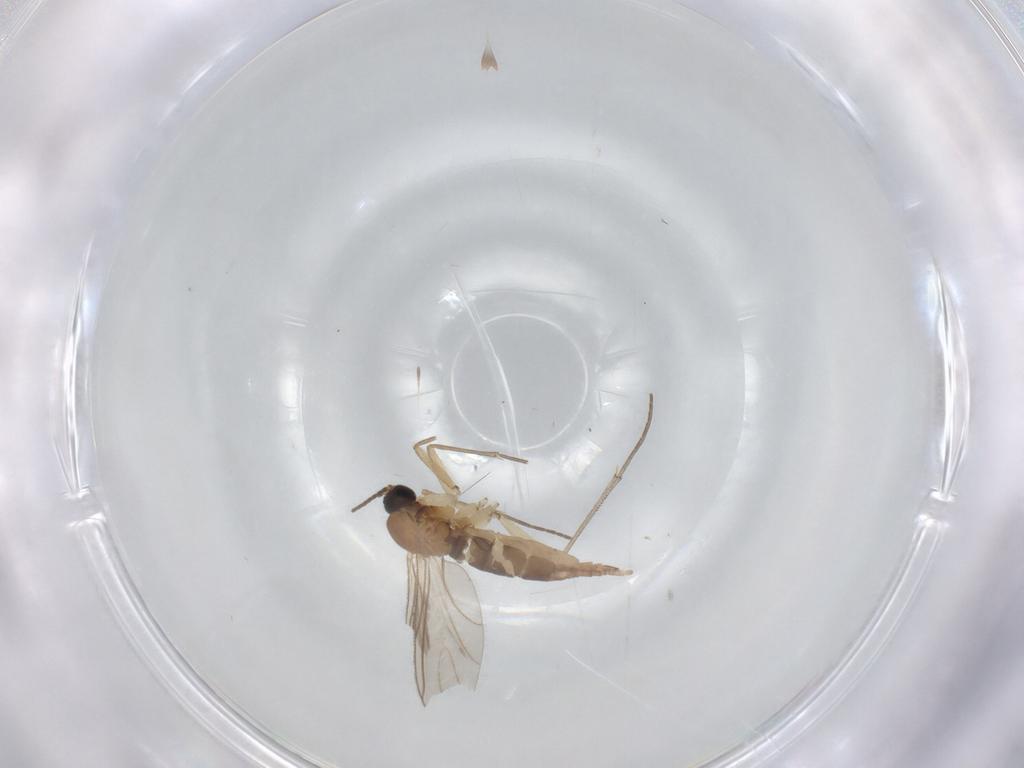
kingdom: Animalia
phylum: Arthropoda
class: Insecta
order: Diptera
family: Sciaridae
